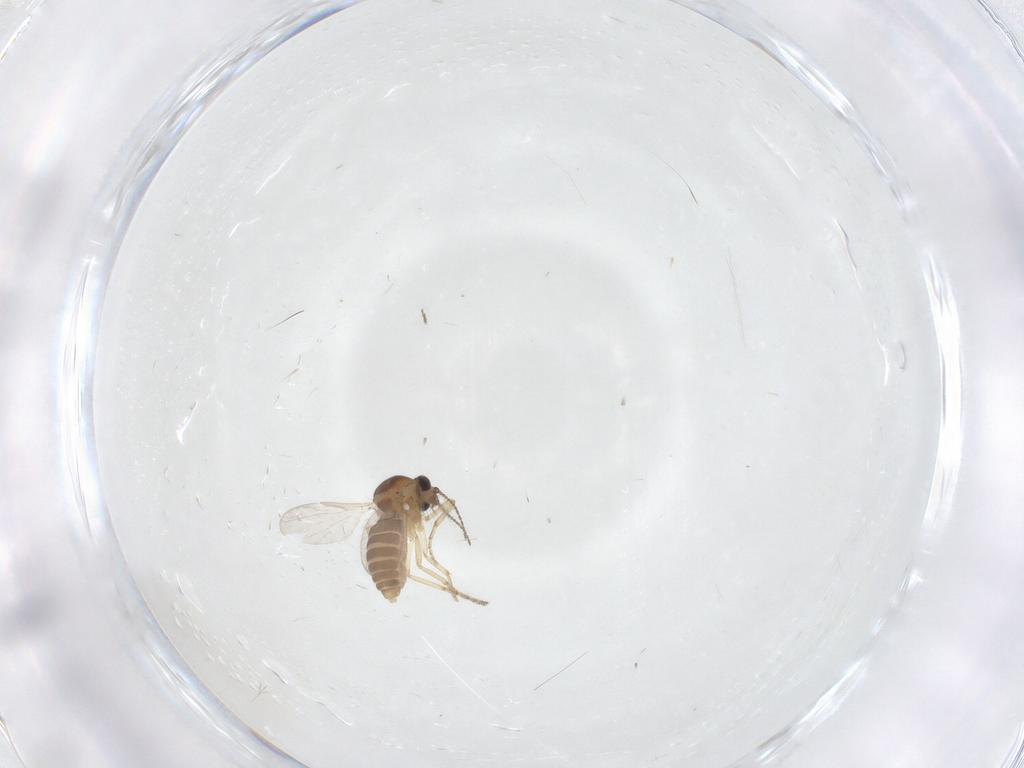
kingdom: Animalia
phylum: Arthropoda
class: Insecta
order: Diptera
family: Ceratopogonidae
